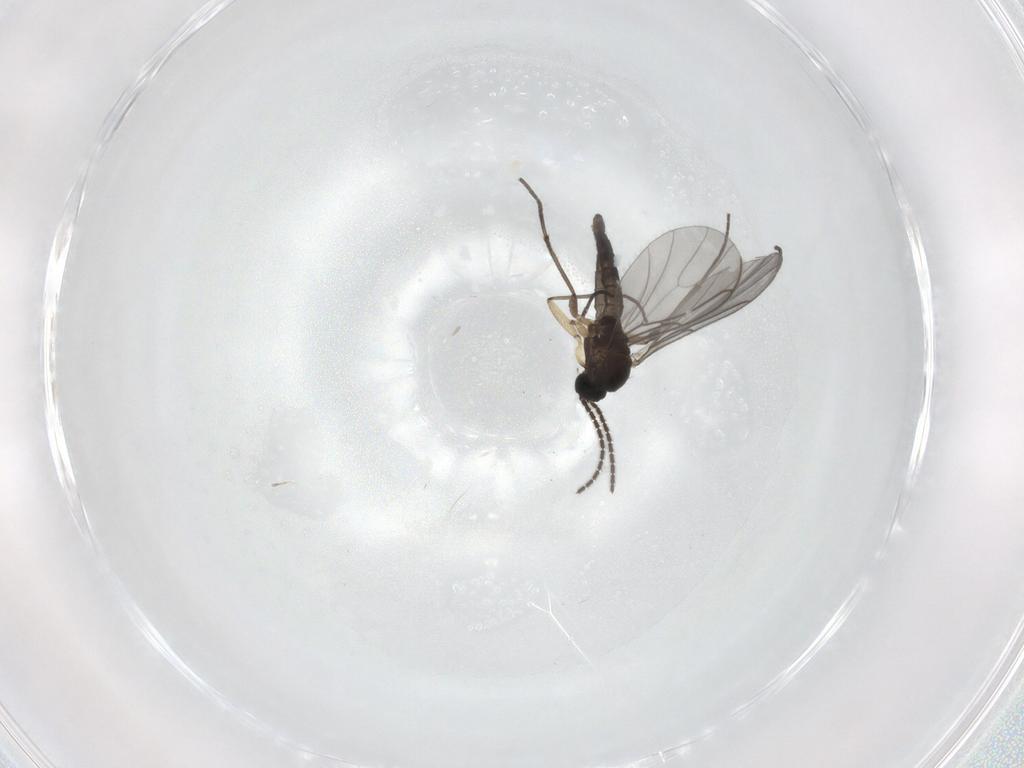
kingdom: Animalia
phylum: Arthropoda
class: Insecta
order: Diptera
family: Sciaridae
